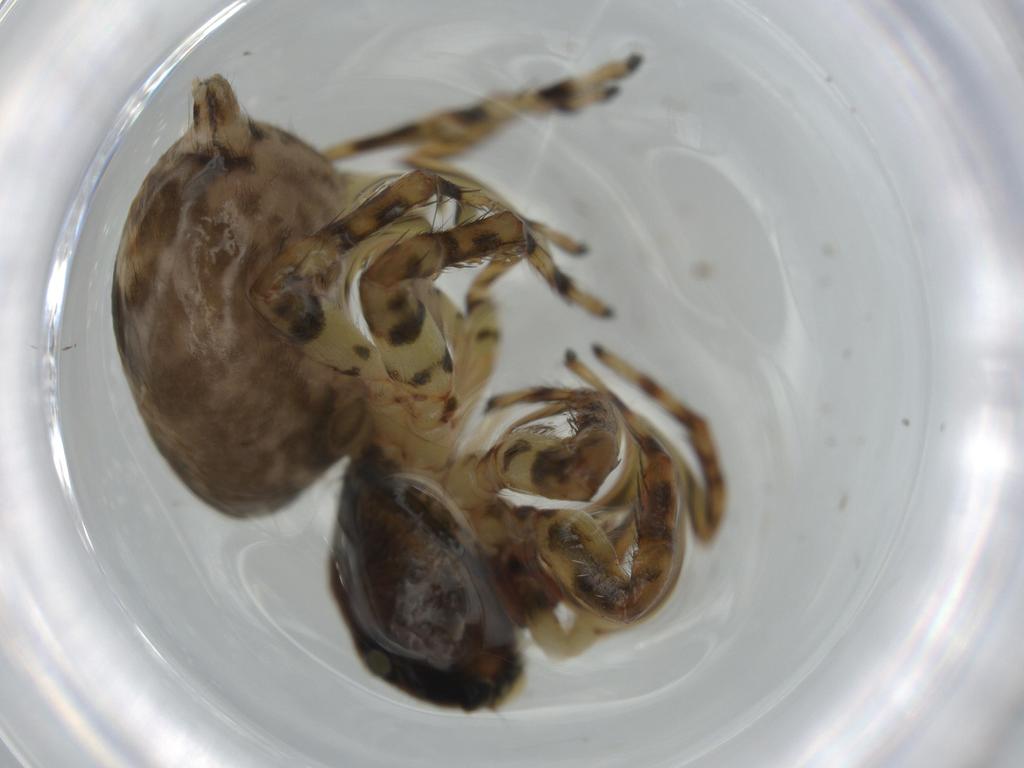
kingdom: Animalia
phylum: Arthropoda
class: Arachnida
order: Araneae
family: Salticidae
